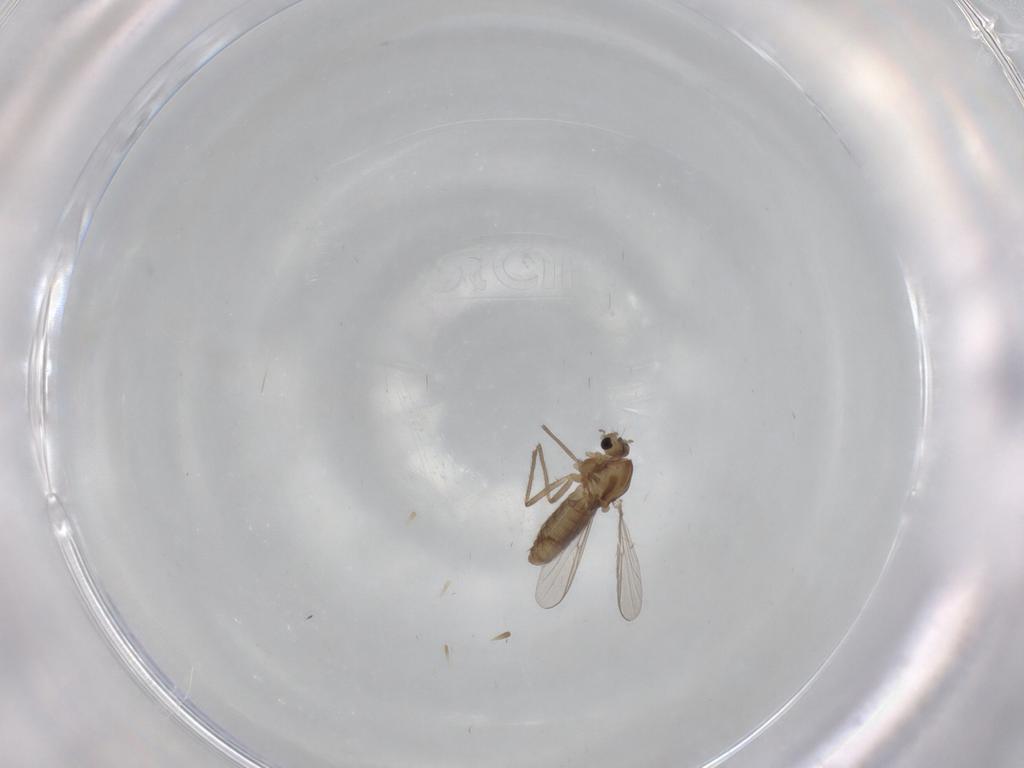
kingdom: Animalia
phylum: Arthropoda
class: Insecta
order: Diptera
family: Chironomidae
